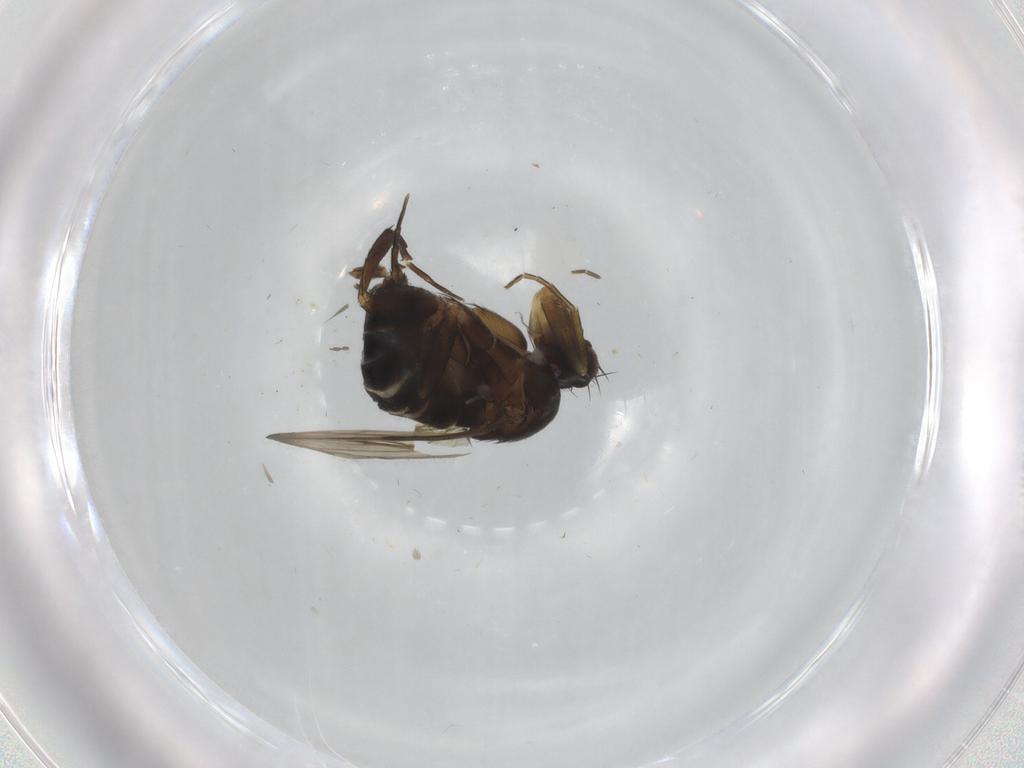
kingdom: Animalia
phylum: Arthropoda
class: Insecta
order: Diptera
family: Phoridae
